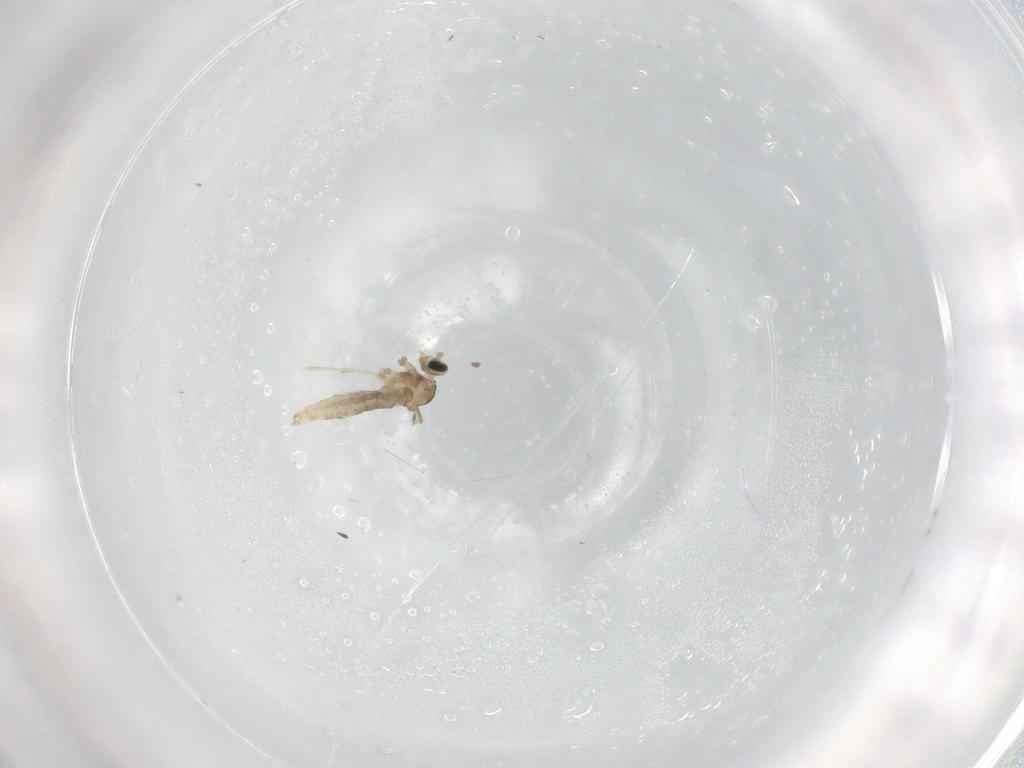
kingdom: Animalia
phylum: Arthropoda
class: Insecta
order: Diptera
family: Cecidomyiidae
